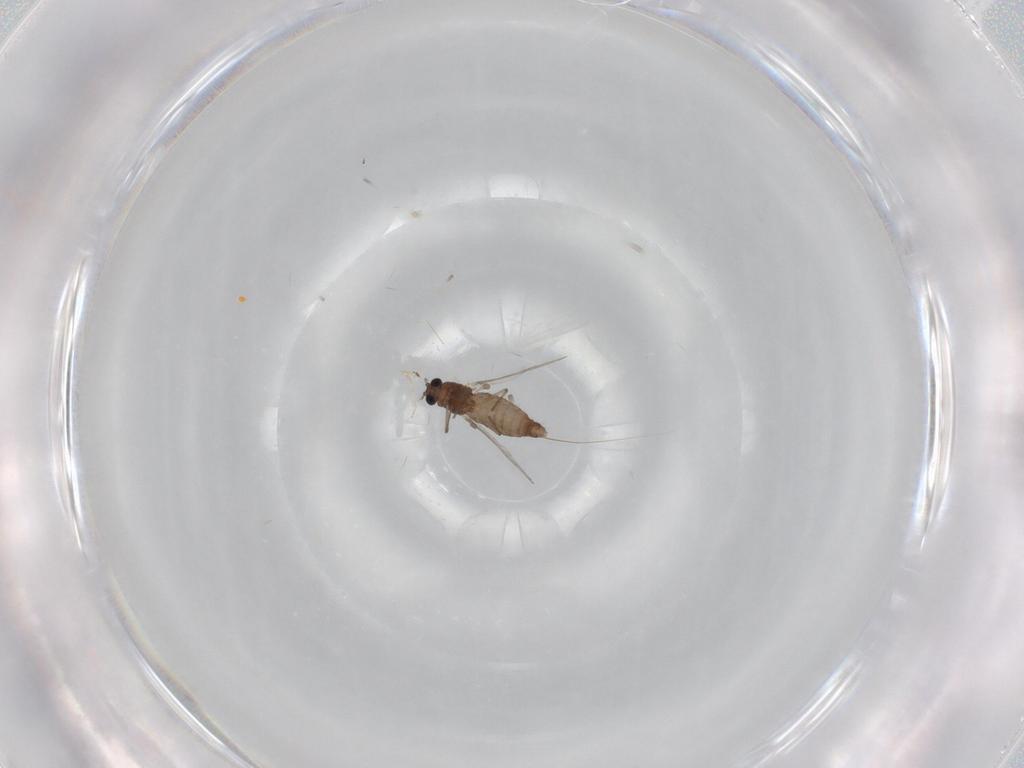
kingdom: Animalia
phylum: Arthropoda
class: Insecta
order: Diptera
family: Chironomidae
